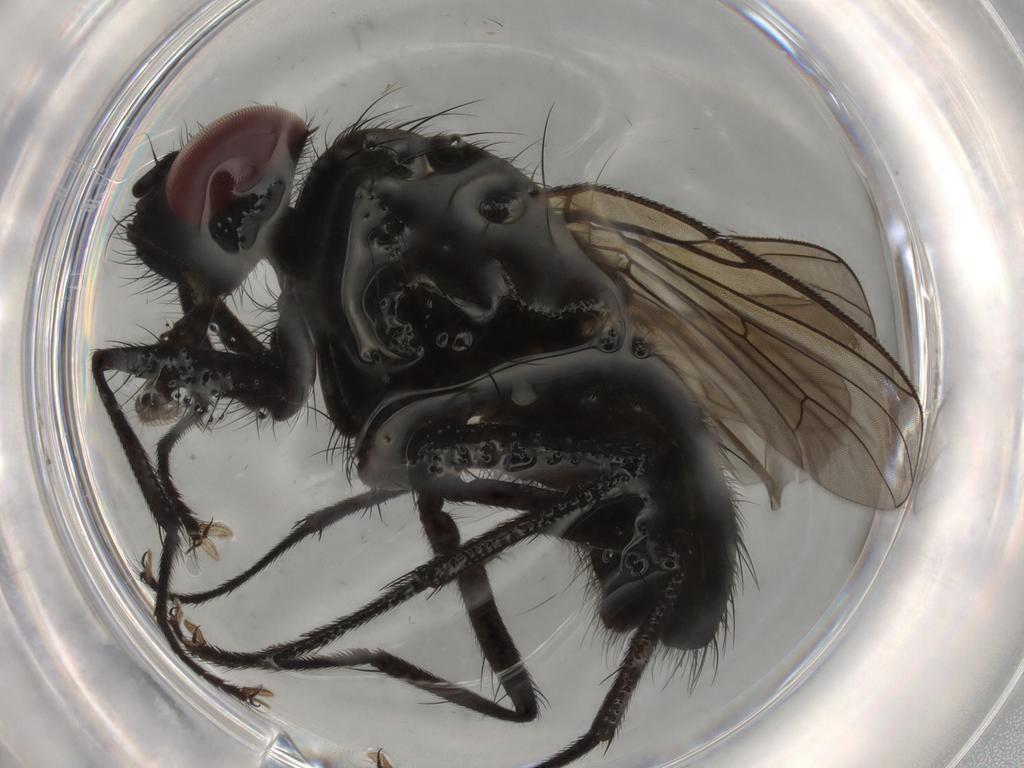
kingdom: Animalia
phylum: Arthropoda
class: Insecta
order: Diptera
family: Muscidae
